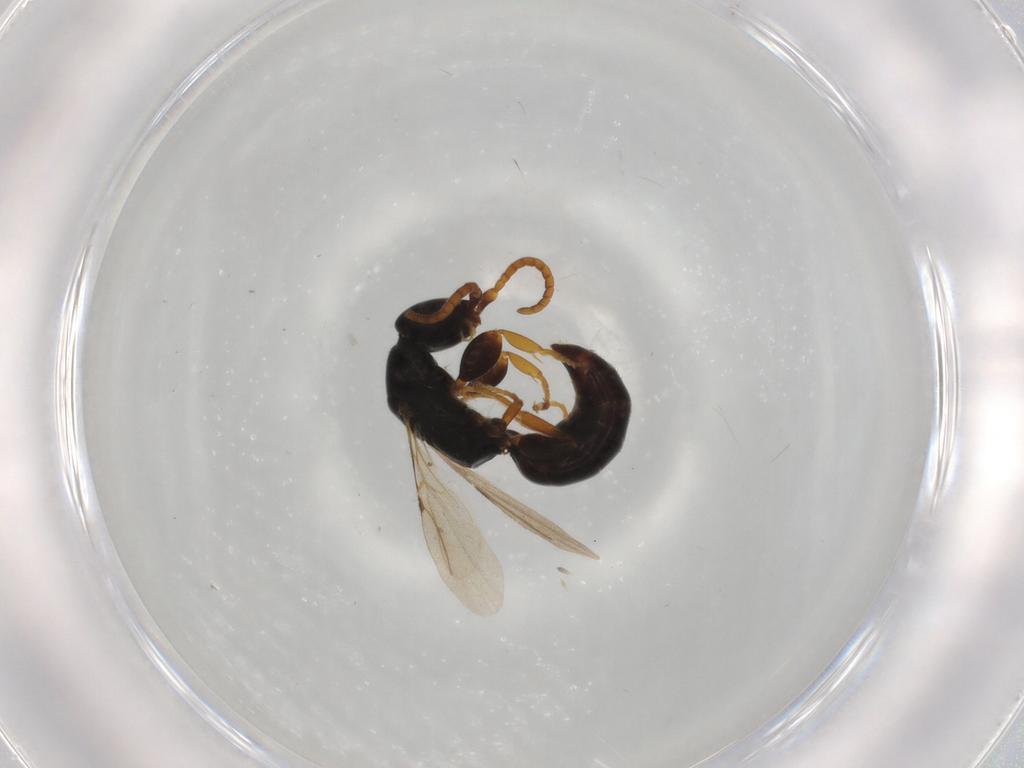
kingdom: Animalia
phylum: Arthropoda
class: Insecta
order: Hymenoptera
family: Bethylidae
